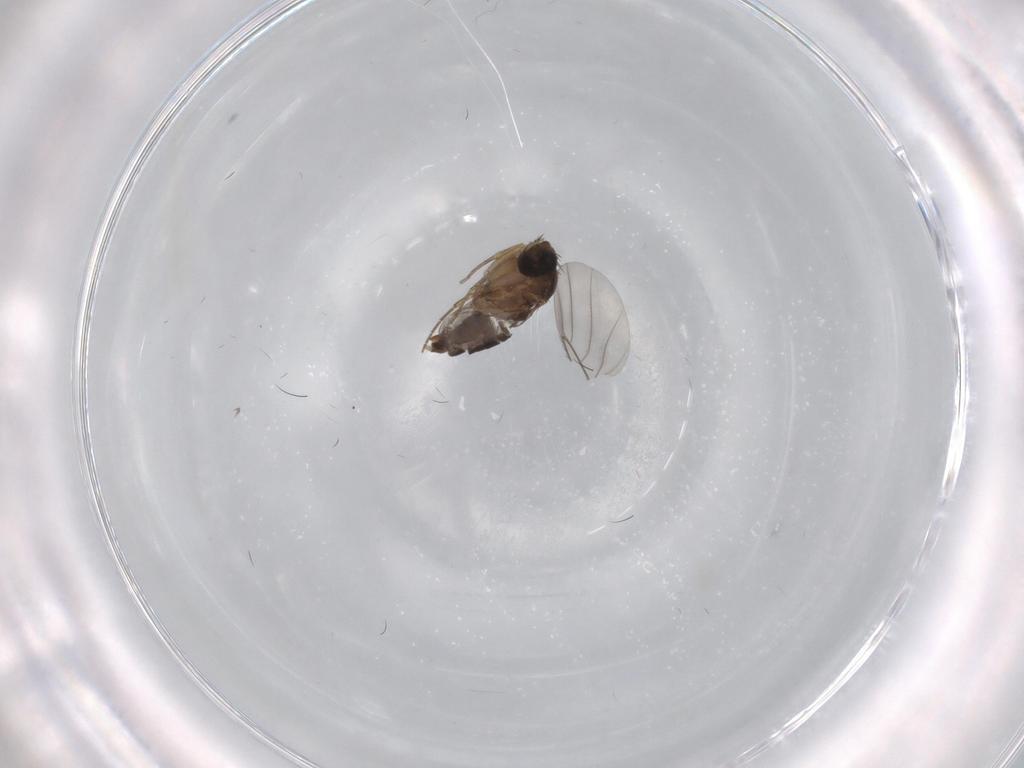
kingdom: Animalia
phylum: Arthropoda
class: Insecta
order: Diptera
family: Phoridae
